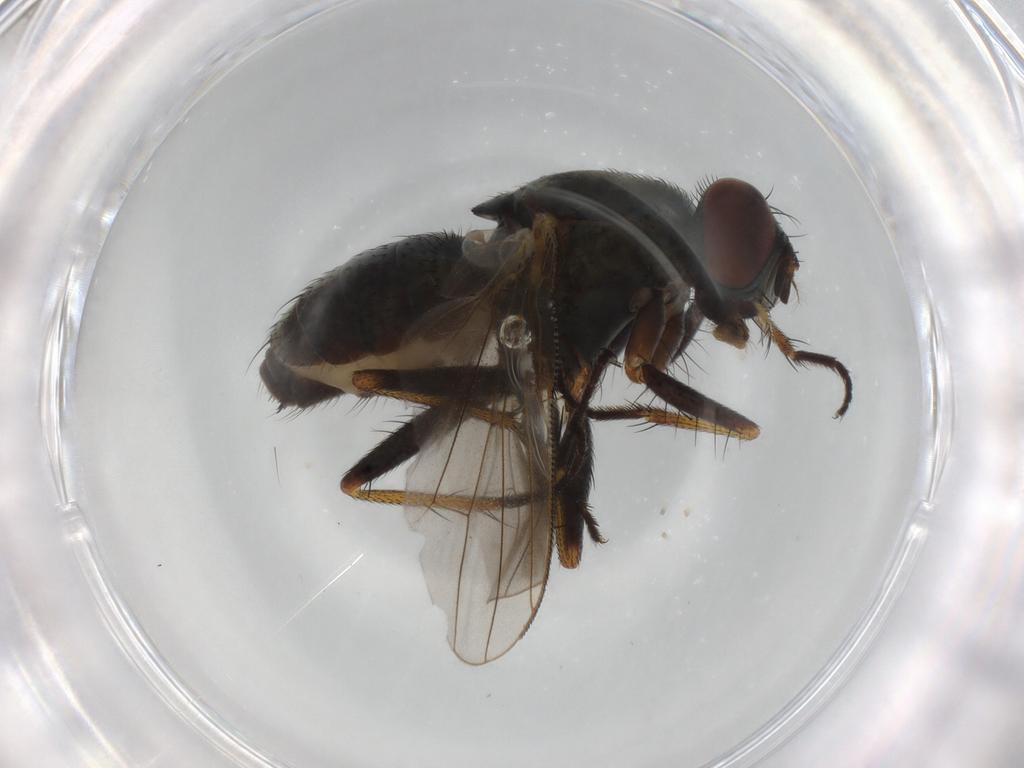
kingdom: Animalia
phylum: Arthropoda
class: Insecta
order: Diptera
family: Muscidae
